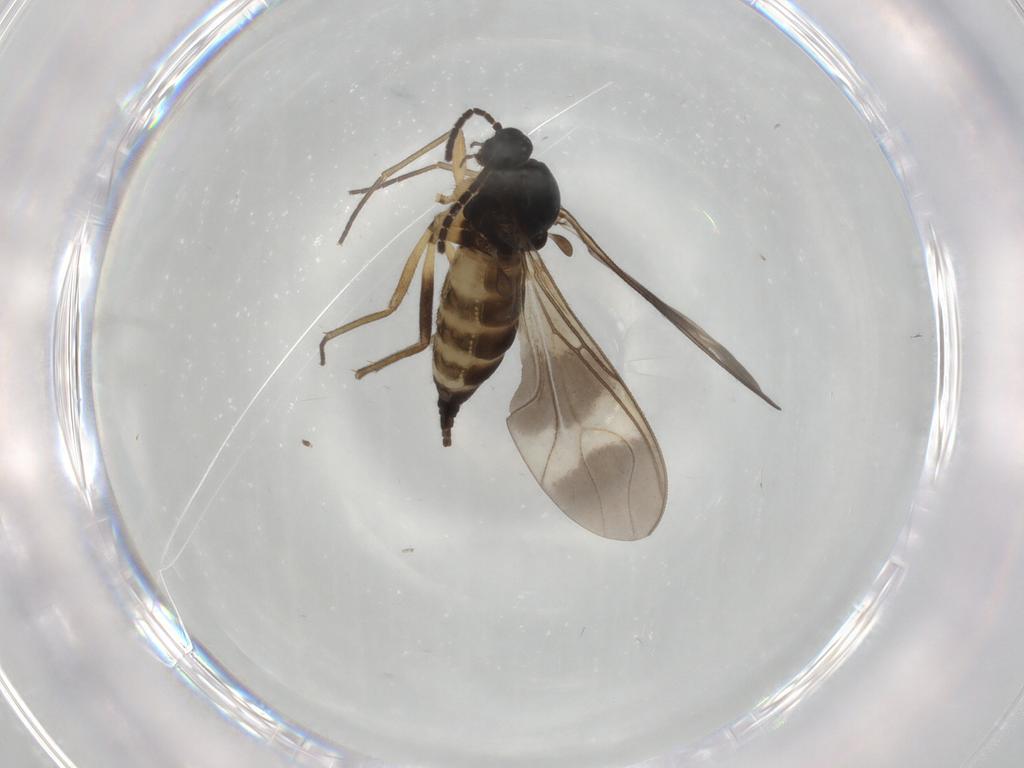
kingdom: Animalia
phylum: Arthropoda
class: Insecta
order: Diptera
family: Sciaridae
